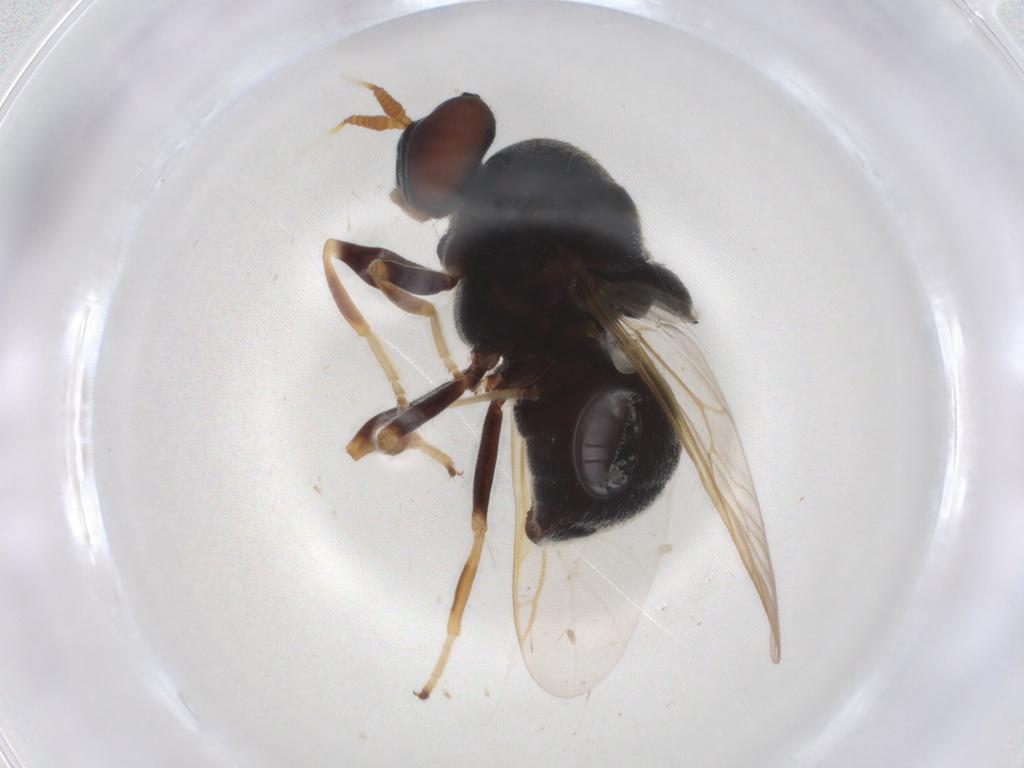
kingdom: Animalia
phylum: Arthropoda
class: Insecta
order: Diptera
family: Stratiomyidae
